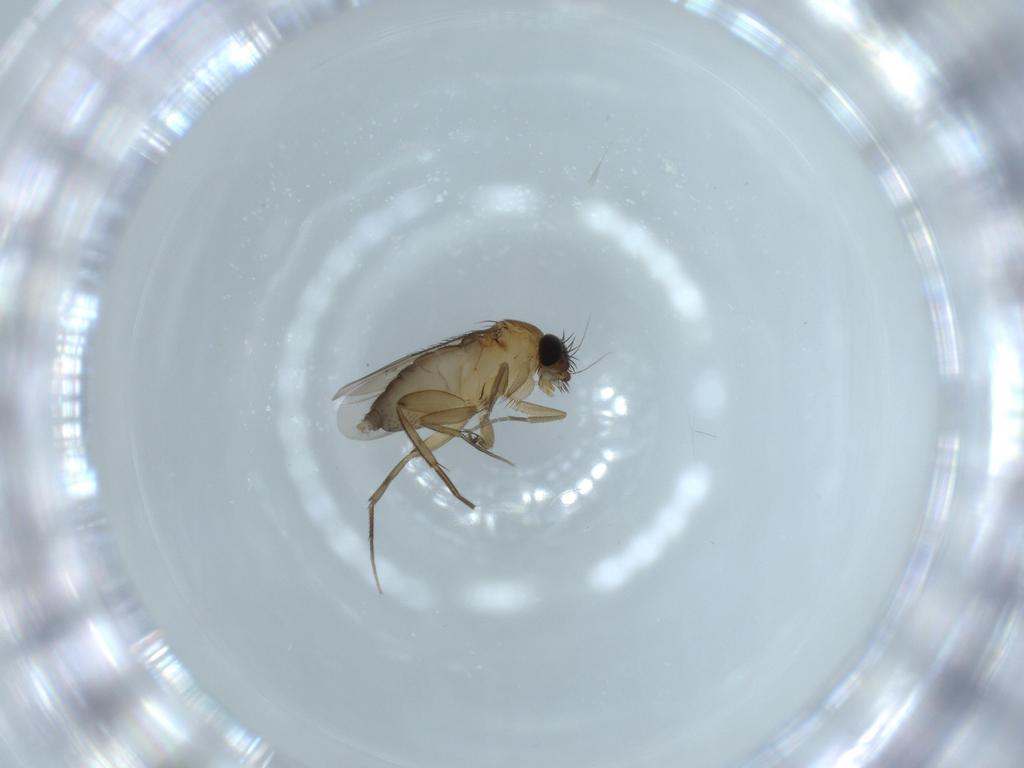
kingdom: Animalia
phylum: Arthropoda
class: Insecta
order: Diptera
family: Phoridae
